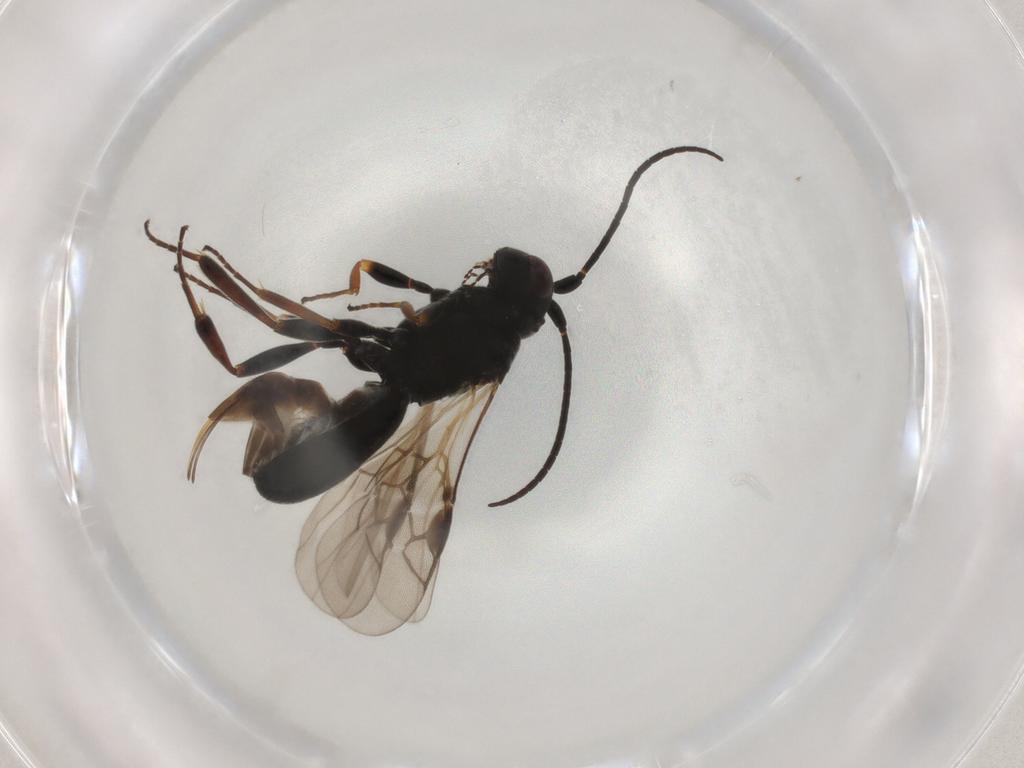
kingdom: Animalia
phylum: Arthropoda
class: Insecta
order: Hymenoptera
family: Braconidae
